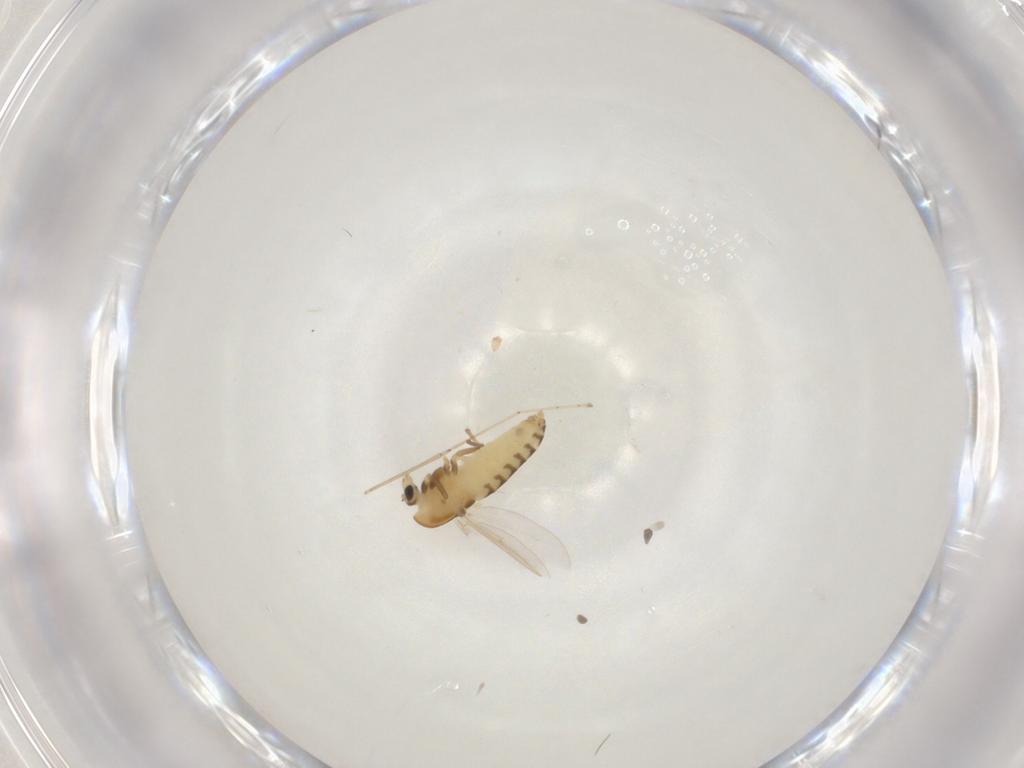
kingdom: Animalia
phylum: Arthropoda
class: Insecta
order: Diptera
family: Chironomidae
